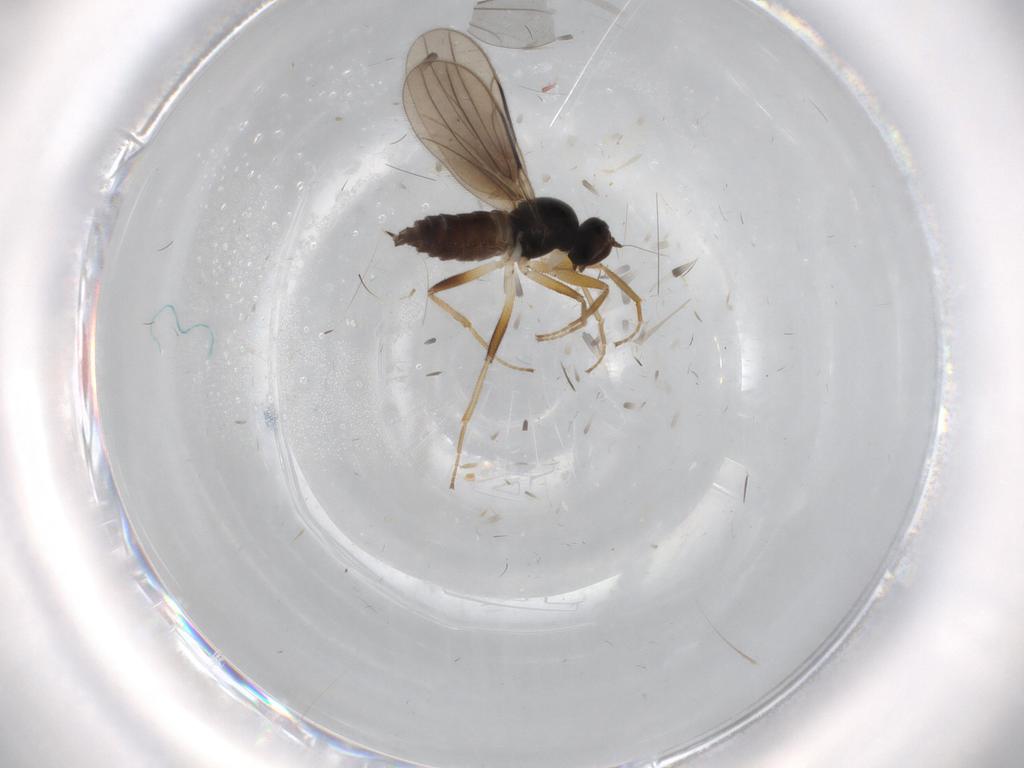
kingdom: Animalia
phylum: Arthropoda
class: Insecta
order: Diptera
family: Hybotidae
